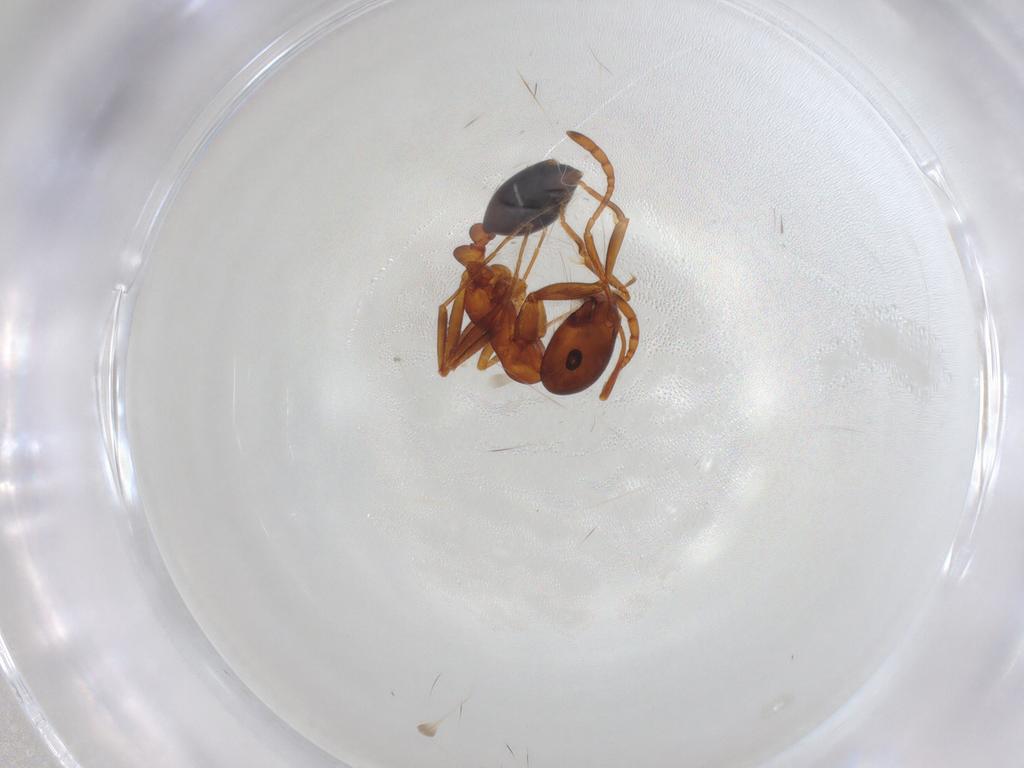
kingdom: Animalia
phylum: Arthropoda
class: Insecta
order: Hymenoptera
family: Formicidae
